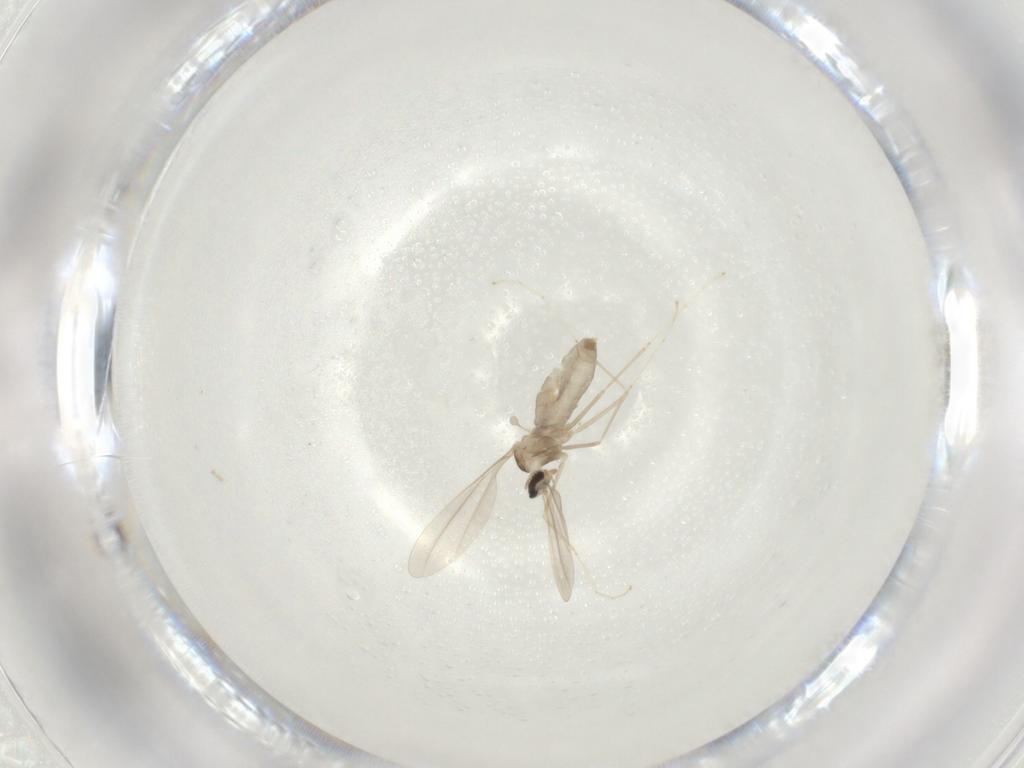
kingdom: Animalia
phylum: Arthropoda
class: Insecta
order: Diptera
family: Cecidomyiidae
